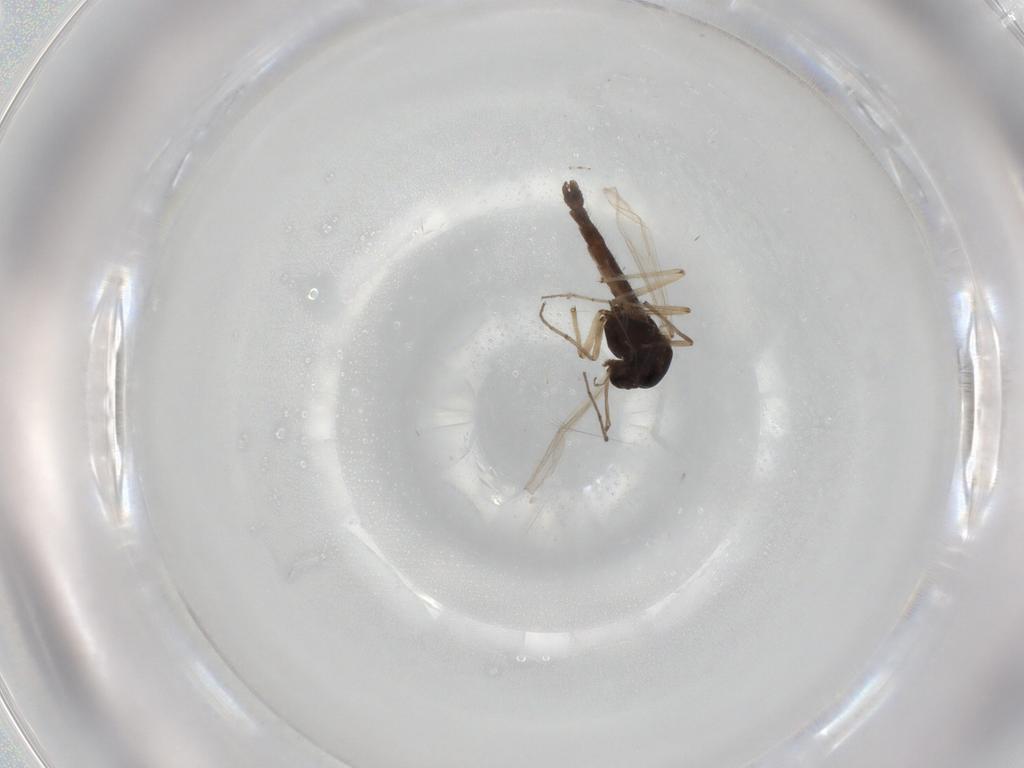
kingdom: Animalia
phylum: Arthropoda
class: Insecta
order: Diptera
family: Chironomidae
